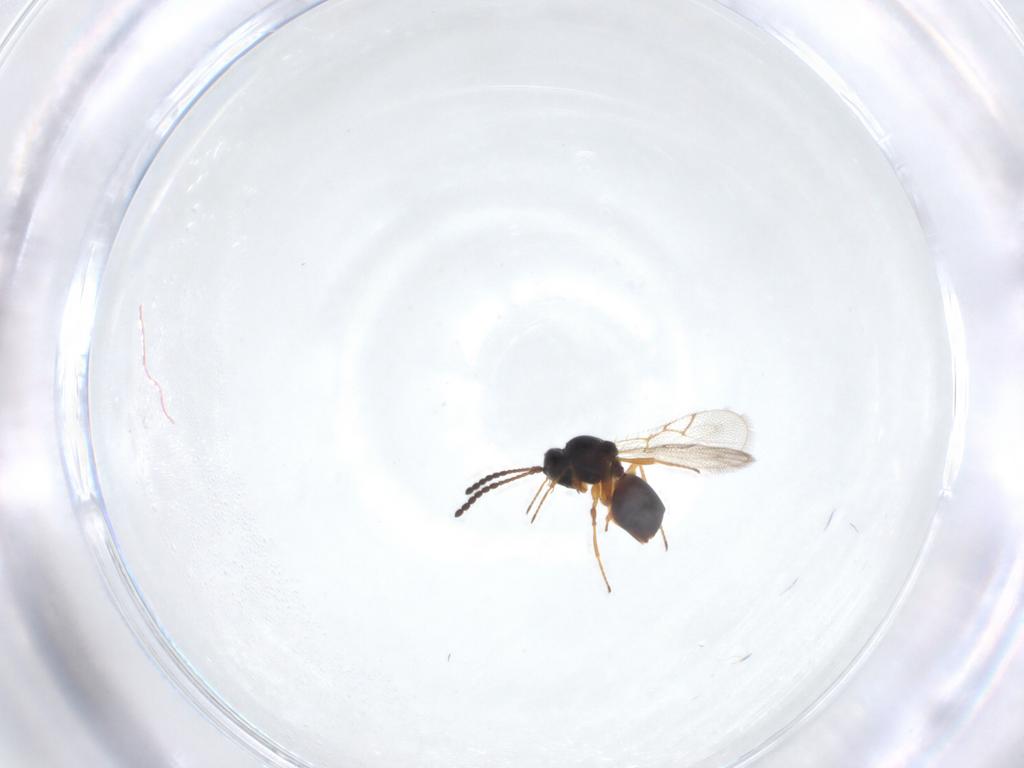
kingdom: Animalia
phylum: Arthropoda
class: Insecta
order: Hymenoptera
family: Figitidae
